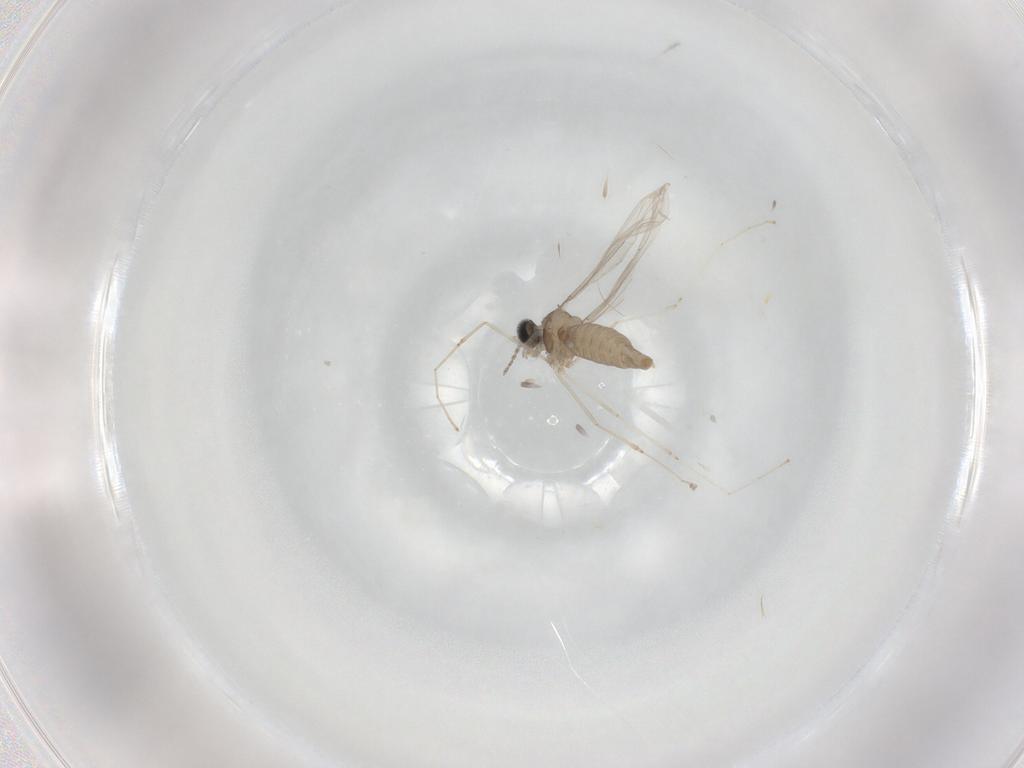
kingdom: Animalia
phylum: Arthropoda
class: Insecta
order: Diptera
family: Cecidomyiidae
